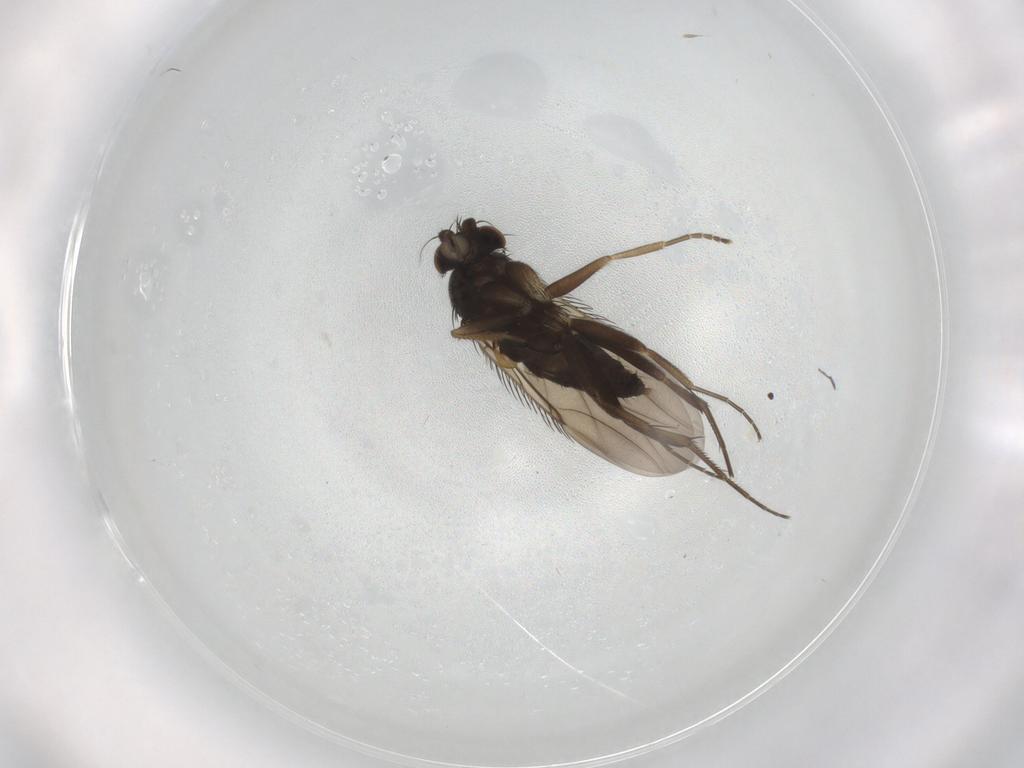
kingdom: Animalia
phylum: Arthropoda
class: Insecta
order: Diptera
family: Phoridae
